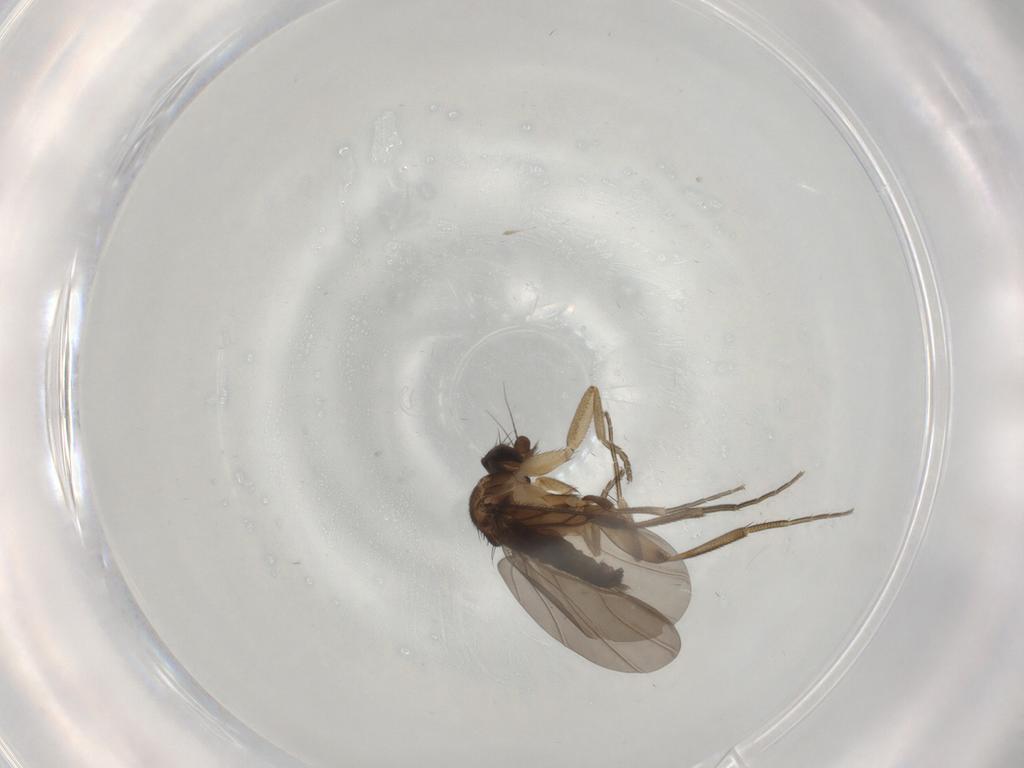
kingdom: Animalia
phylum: Arthropoda
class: Insecta
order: Diptera
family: Phoridae
